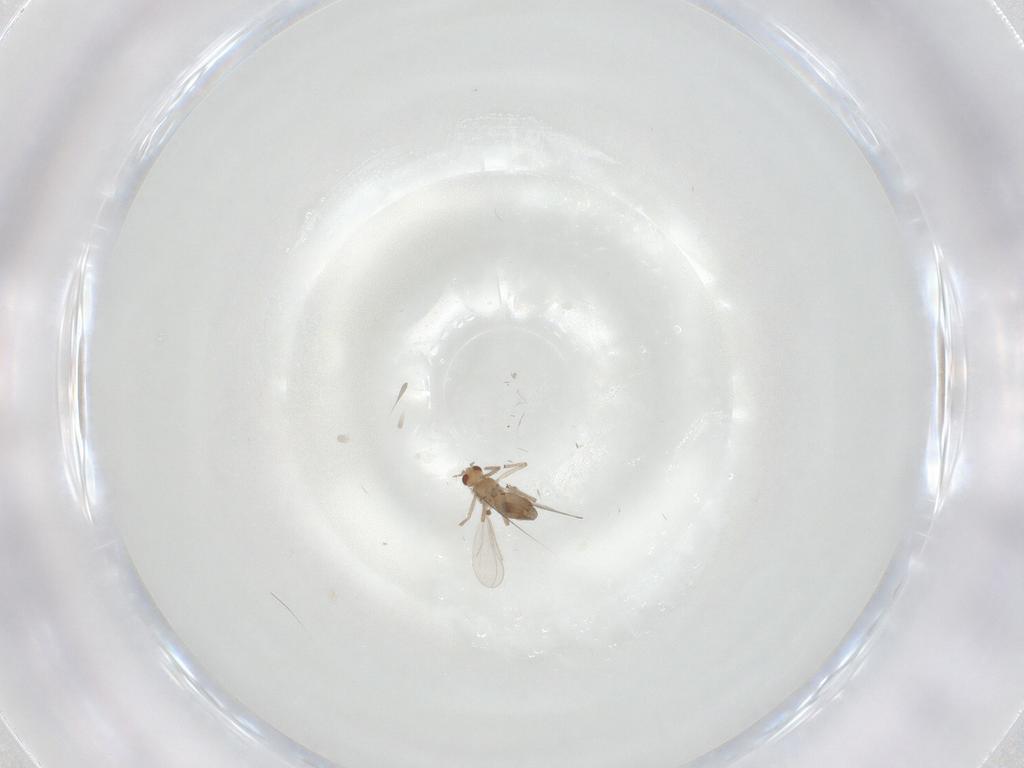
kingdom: Animalia
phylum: Arthropoda
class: Insecta
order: Diptera
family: Chironomidae
